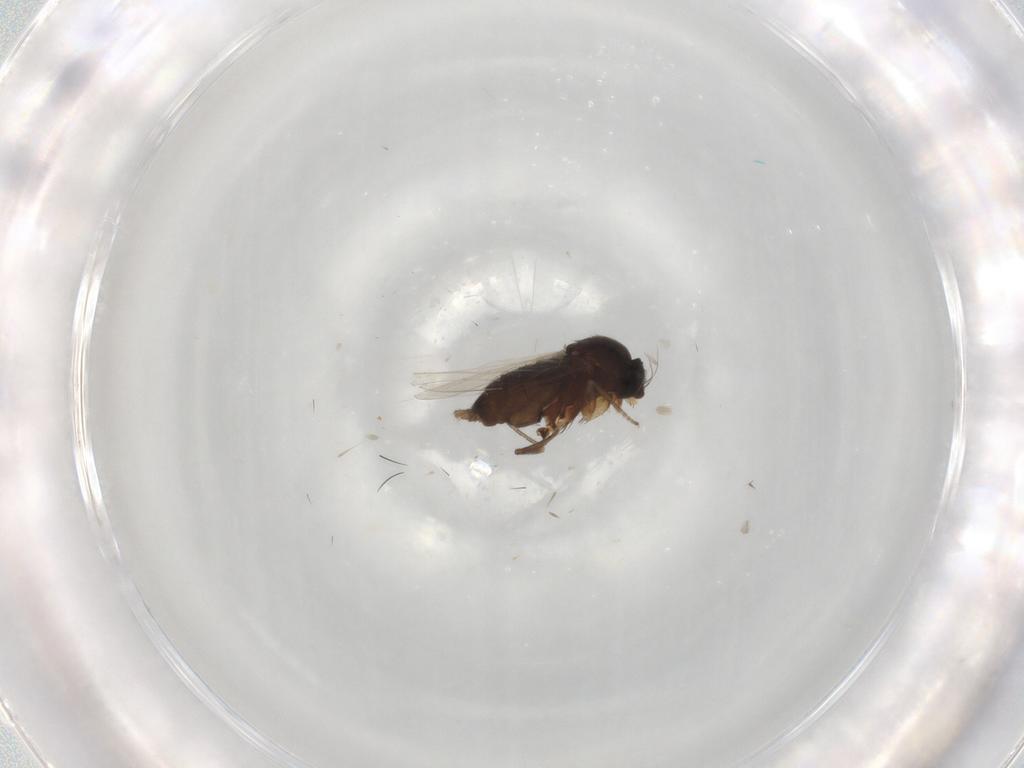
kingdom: Animalia
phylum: Arthropoda
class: Insecta
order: Diptera
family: Phoridae
